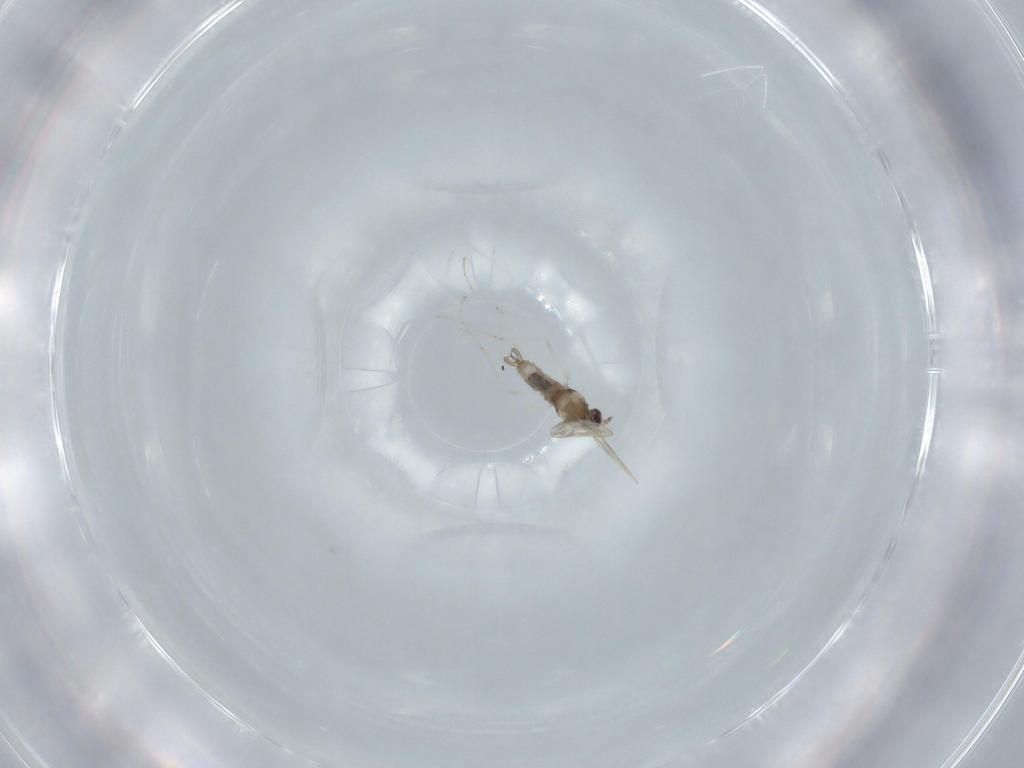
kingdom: Animalia
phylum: Arthropoda
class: Insecta
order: Diptera
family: Cecidomyiidae
